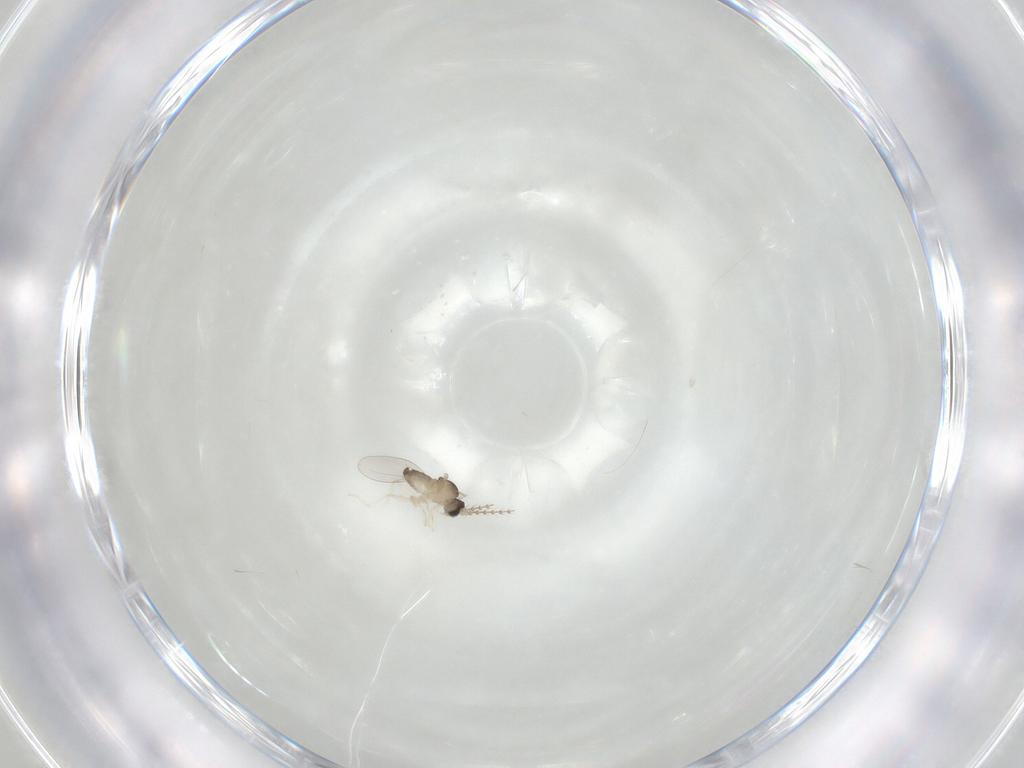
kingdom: Animalia
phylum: Arthropoda
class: Insecta
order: Diptera
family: Cecidomyiidae
